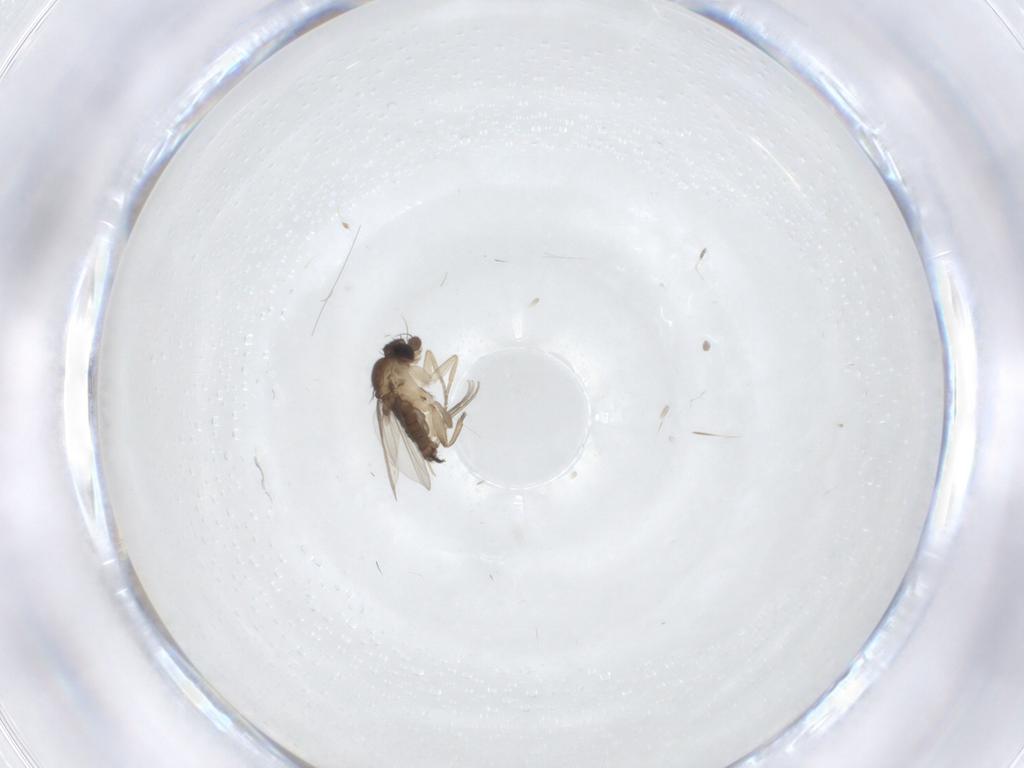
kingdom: Animalia
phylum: Arthropoda
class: Insecta
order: Diptera
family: Phoridae
